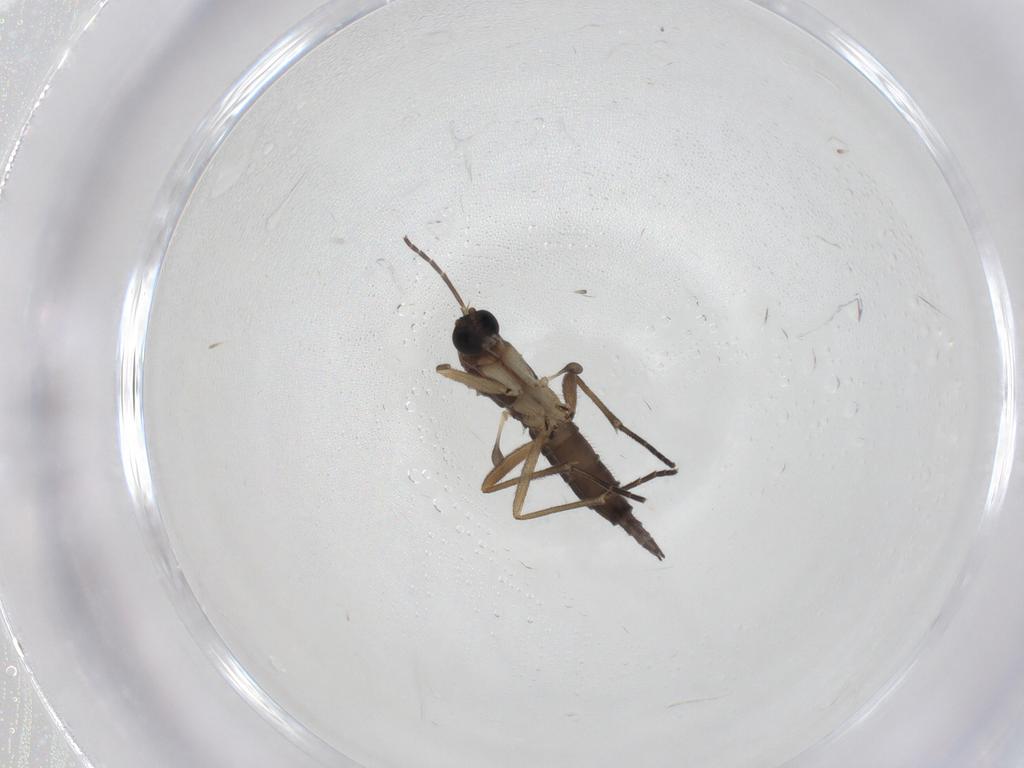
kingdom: Animalia
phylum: Arthropoda
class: Insecta
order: Diptera
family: Sciaridae
